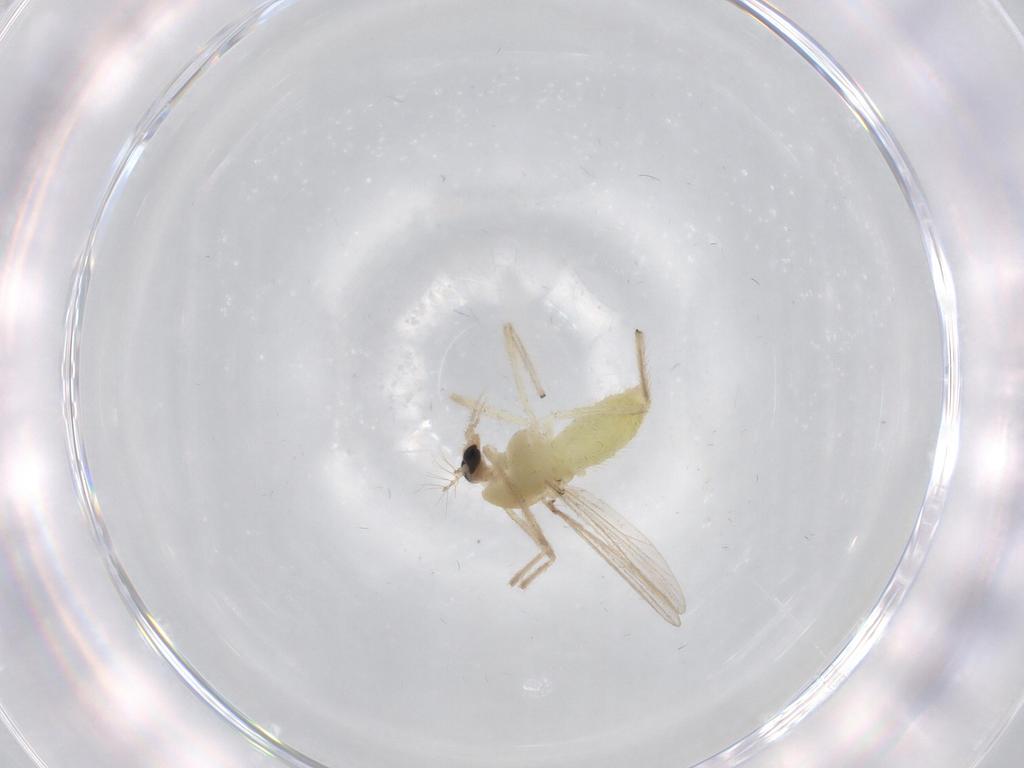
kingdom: Animalia
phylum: Arthropoda
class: Insecta
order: Diptera
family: Chironomidae
